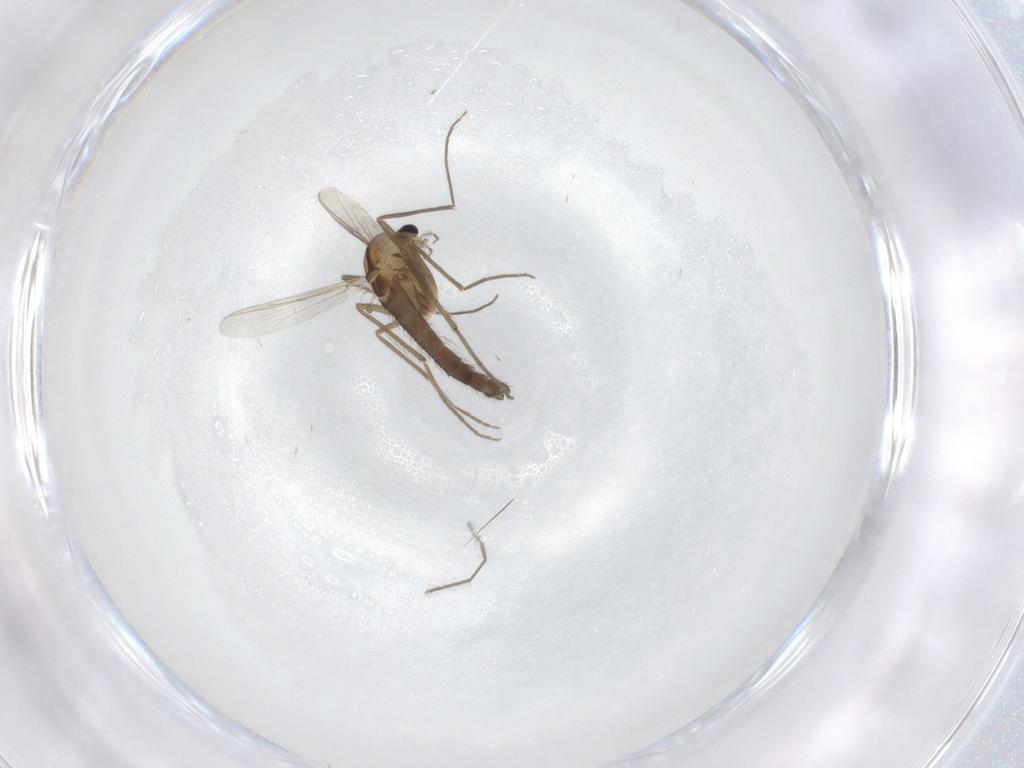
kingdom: Animalia
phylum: Arthropoda
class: Insecta
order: Diptera
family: Chironomidae
